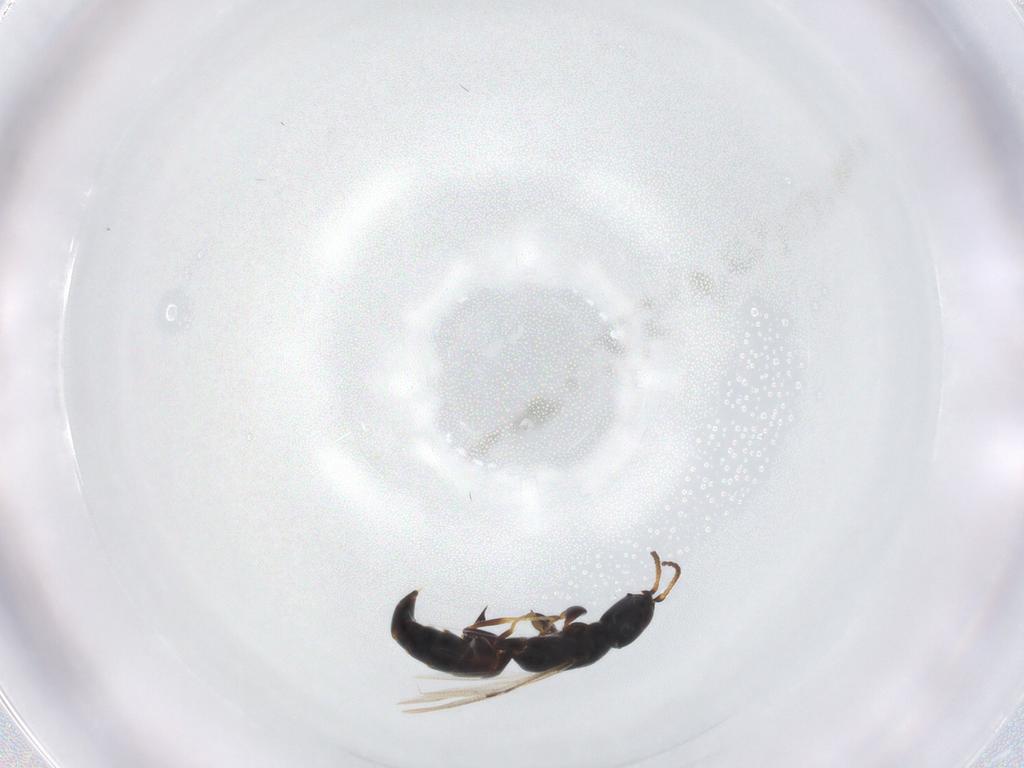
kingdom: Animalia
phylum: Arthropoda
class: Insecta
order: Hymenoptera
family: Bethylidae
